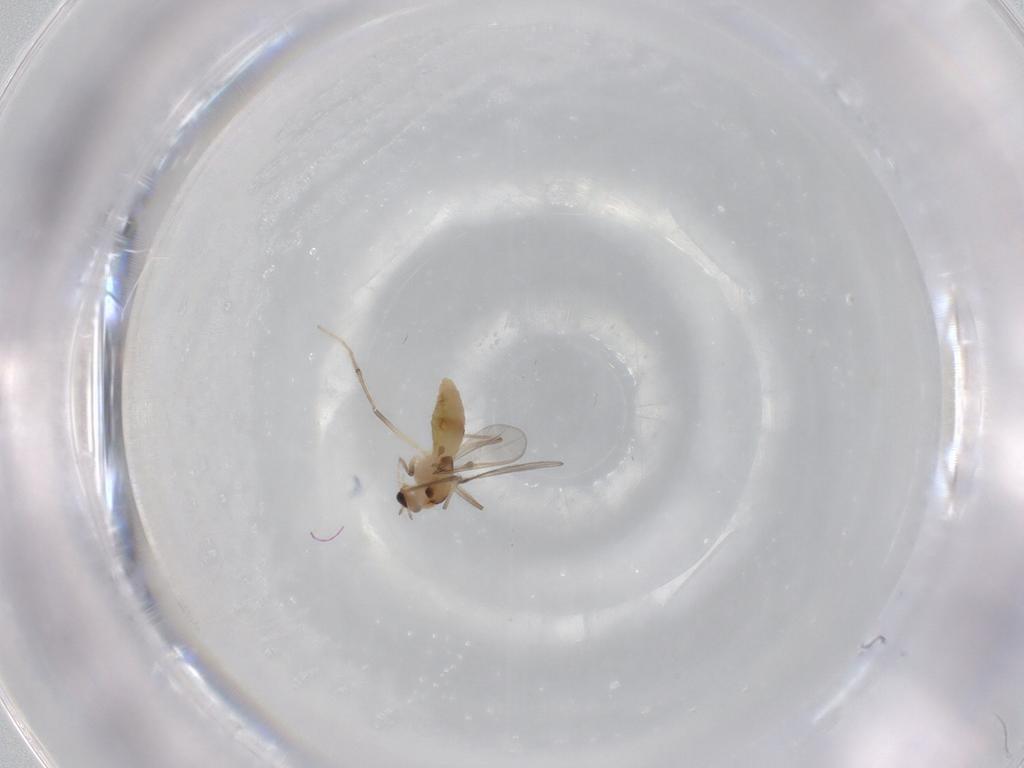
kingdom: Animalia
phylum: Arthropoda
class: Insecta
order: Diptera
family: Chironomidae
